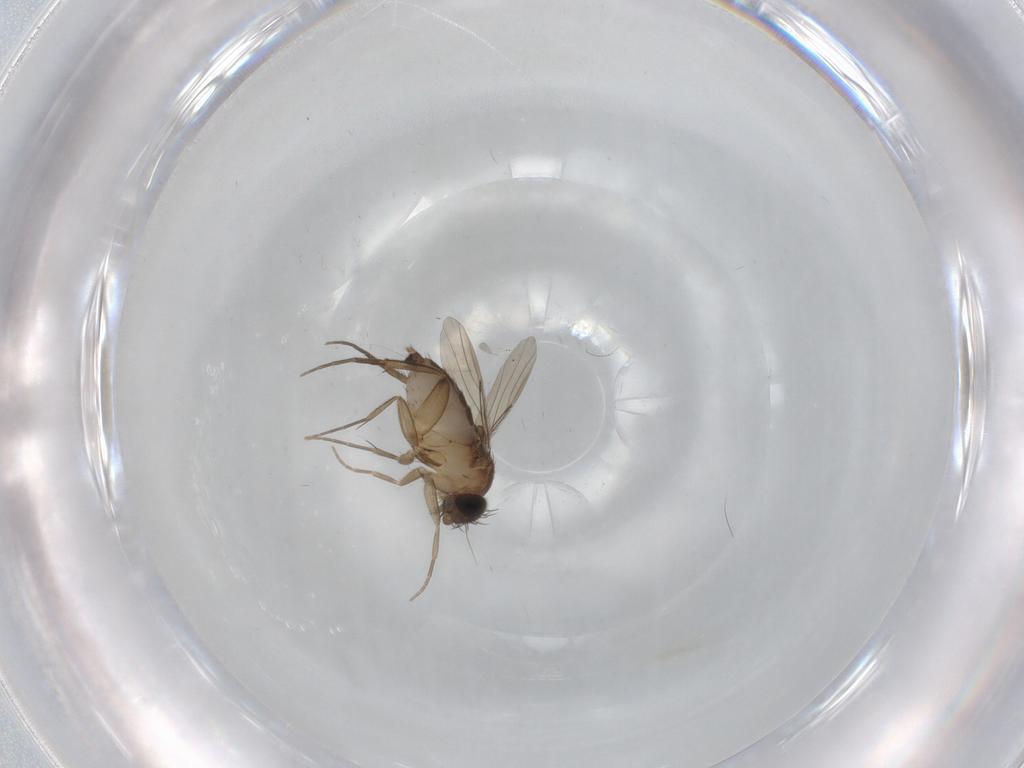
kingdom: Animalia
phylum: Arthropoda
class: Insecta
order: Diptera
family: Phoridae
